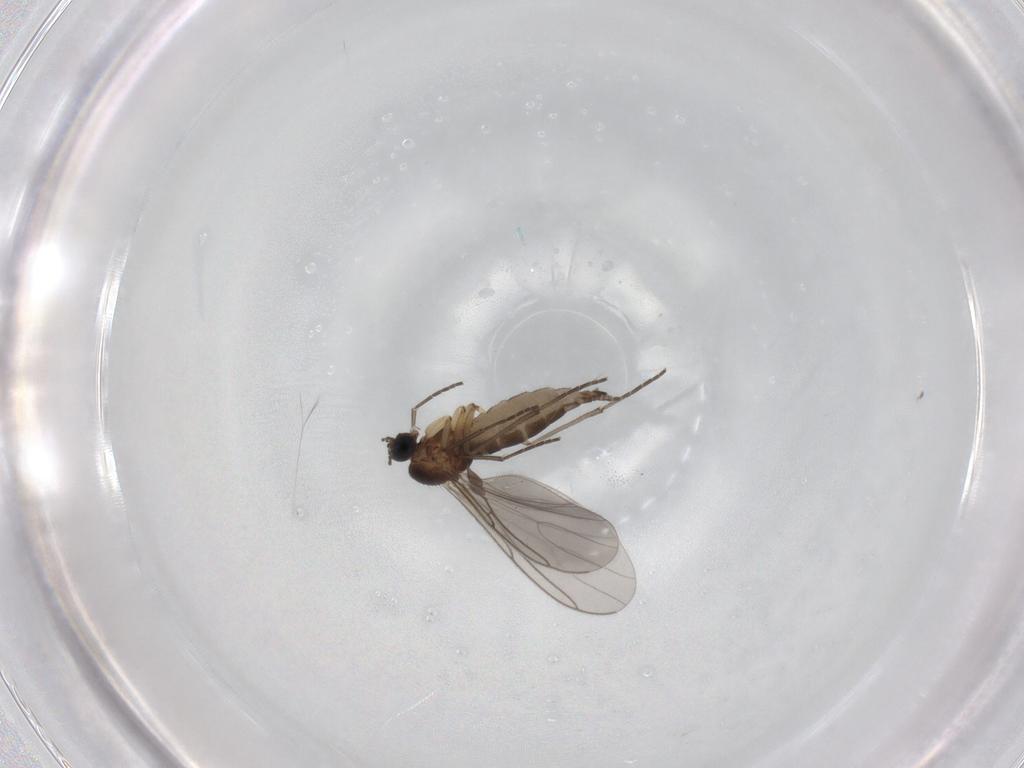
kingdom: Animalia
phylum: Arthropoda
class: Insecta
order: Diptera
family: Sciaridae
